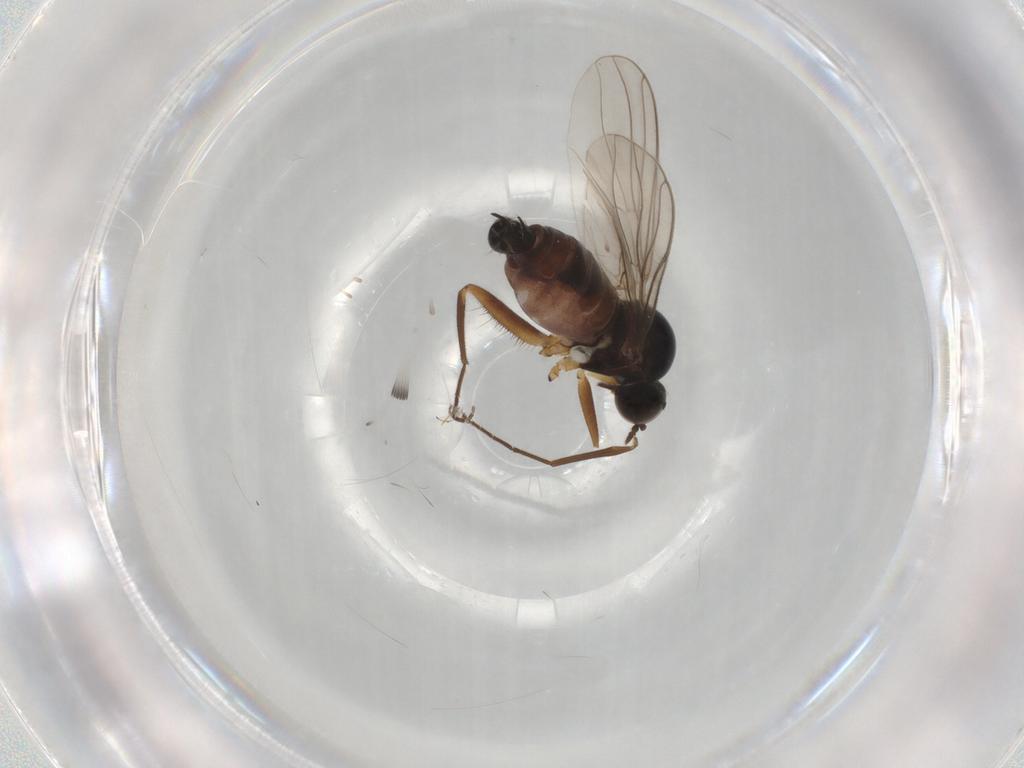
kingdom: Animalia
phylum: Arthropoda
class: Insecta
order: Diptera
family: Hybotidae
